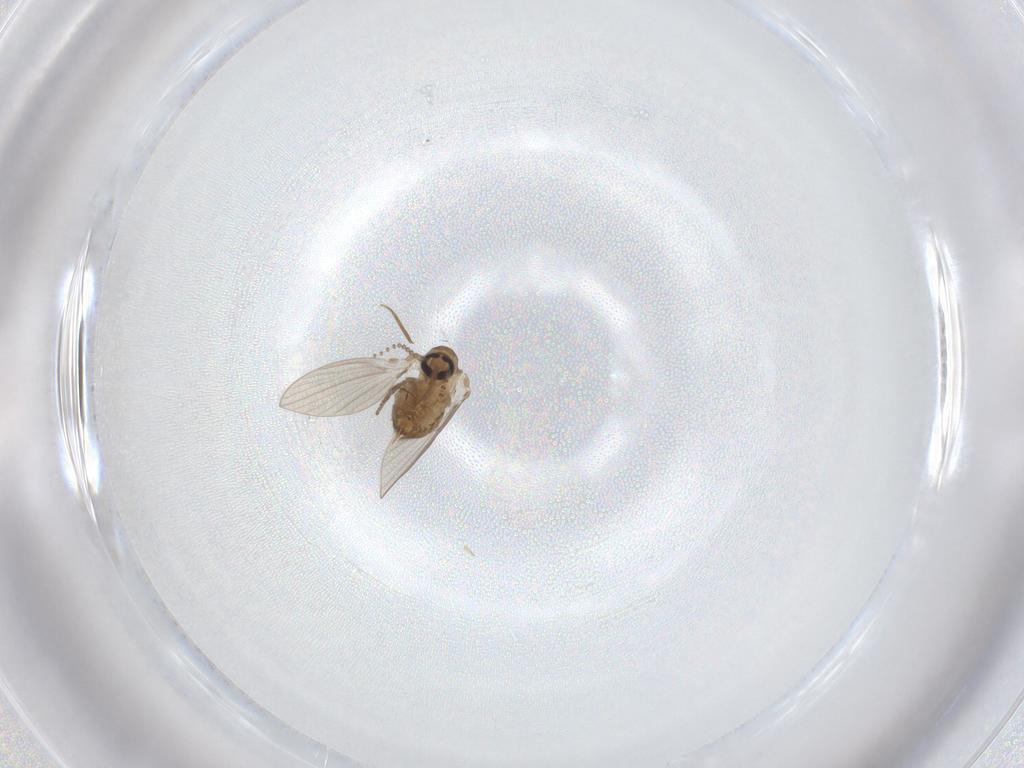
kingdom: Animalia
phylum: Arthropoda
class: Insecta
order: Diptera
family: Psychodidae
